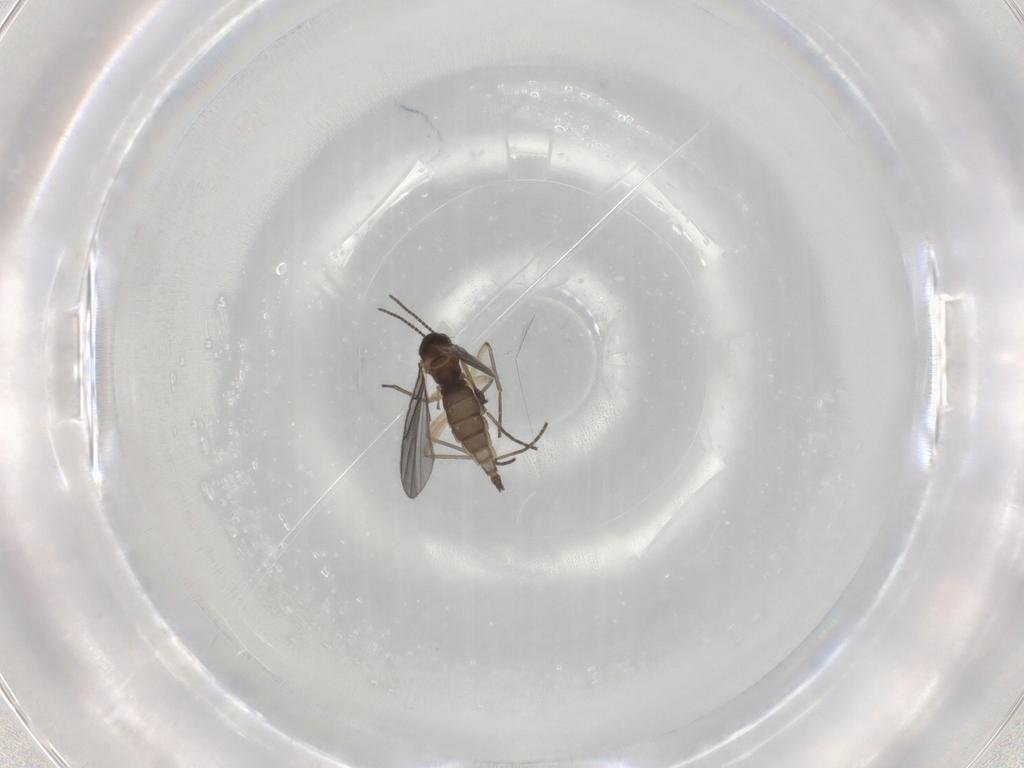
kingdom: Animalia
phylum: Arthropoda
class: Insecta
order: Diptera
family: Sciaridae
